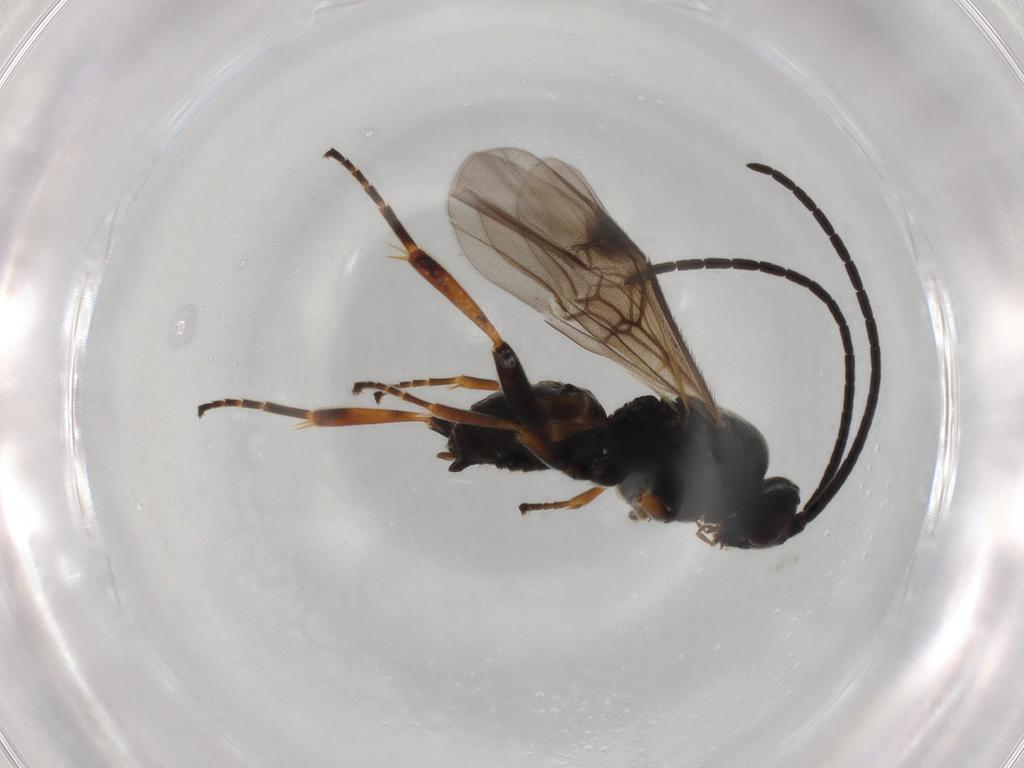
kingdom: Animalia
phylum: Arthropoda
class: Insecta
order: Hymenoptera
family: Braconidae
